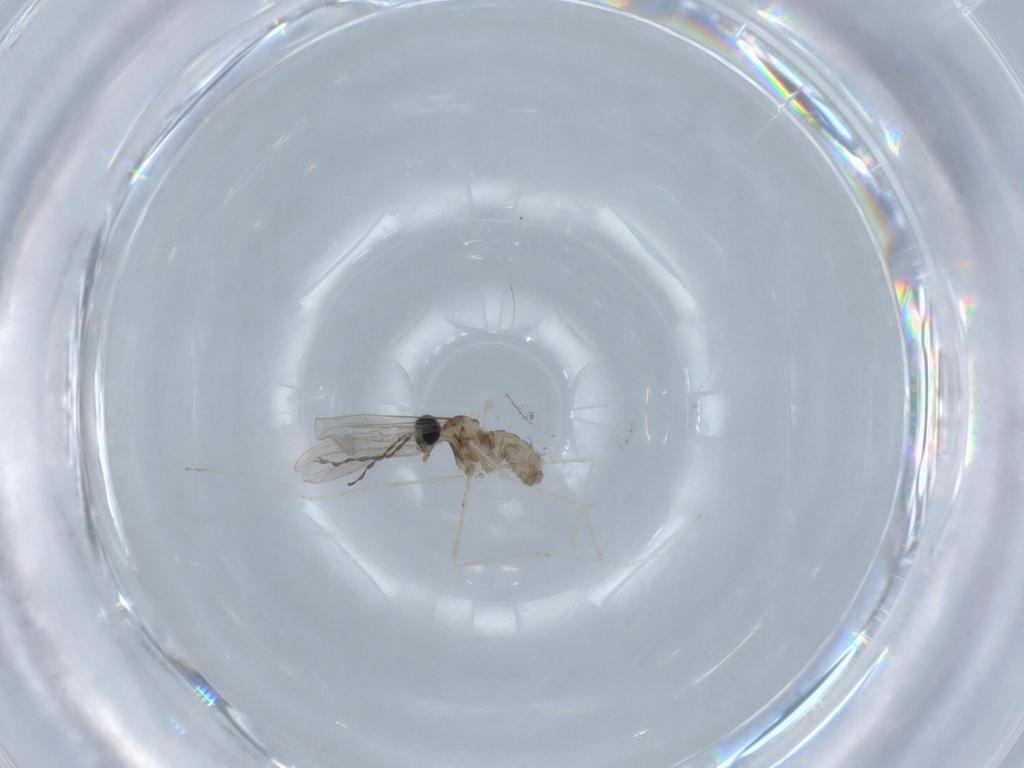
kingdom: Animalia
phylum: Arthropoda
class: Insecta
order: Diptera
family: Cecidomyiidae
